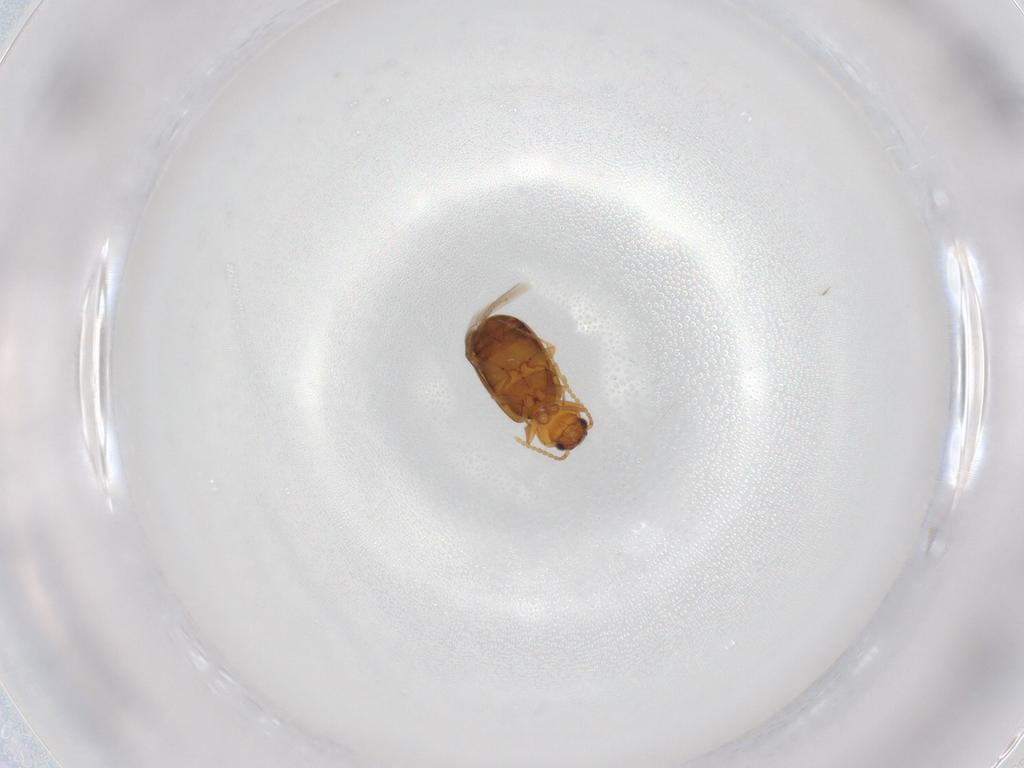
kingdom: Animalia
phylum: Arthropoda
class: Insecta
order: Coleoptera
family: Carabidae
